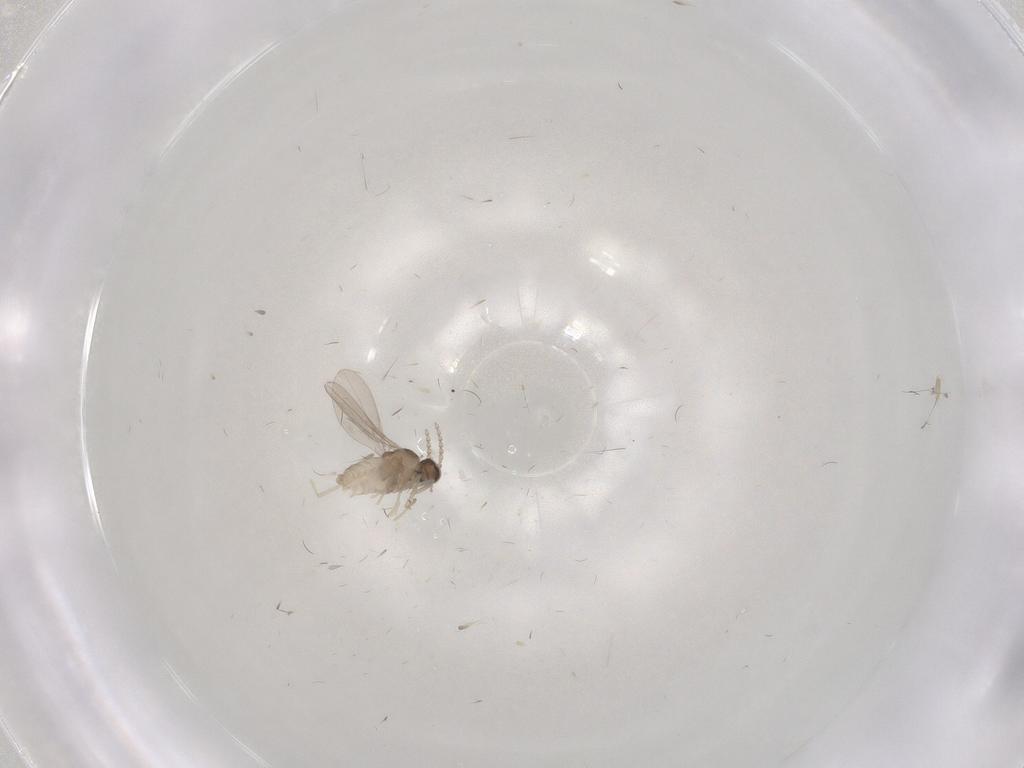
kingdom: Animalia
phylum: Arthropoda
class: Insecta
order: Diptera
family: Cecidomyiidae
